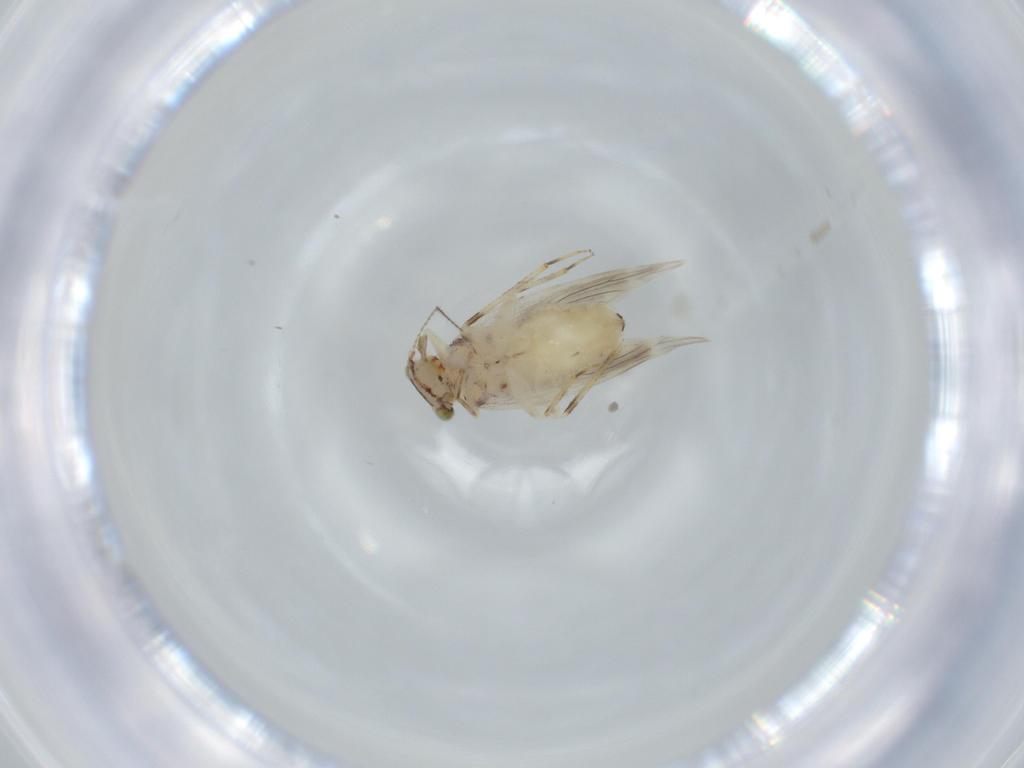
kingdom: Animalia
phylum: Arthropoda
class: Insecta
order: Psocodea
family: Lepidopsocidae
